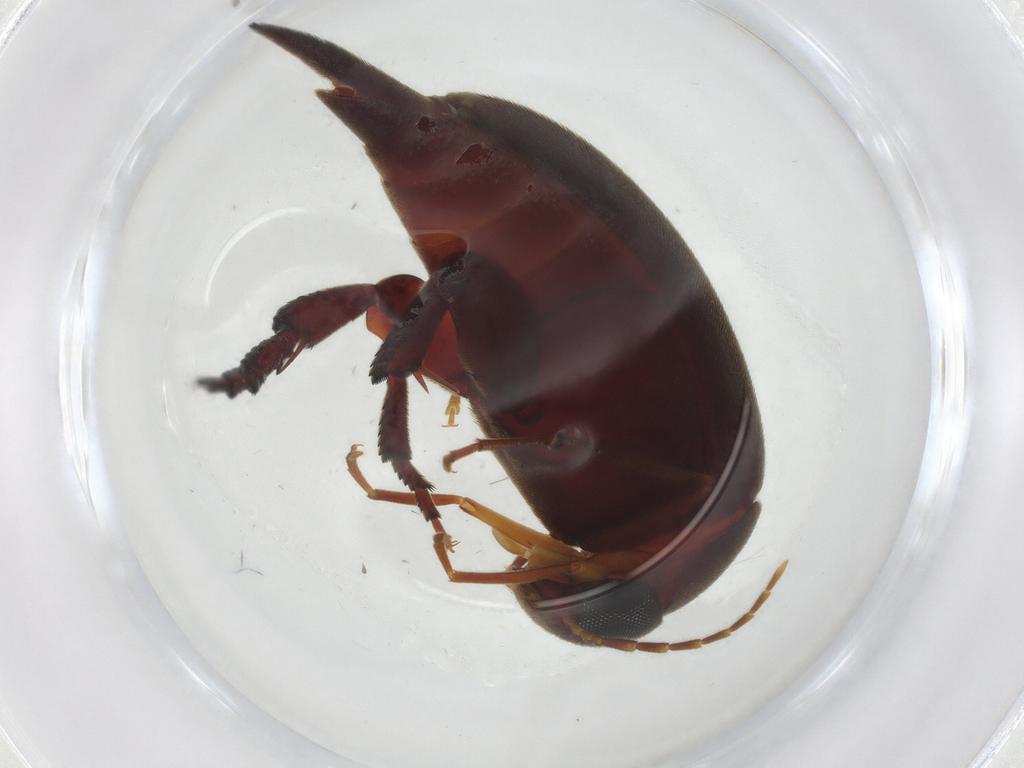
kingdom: Animalia
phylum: Arthropoda
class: Insecta
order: Coleoptera
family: Mordellidae
